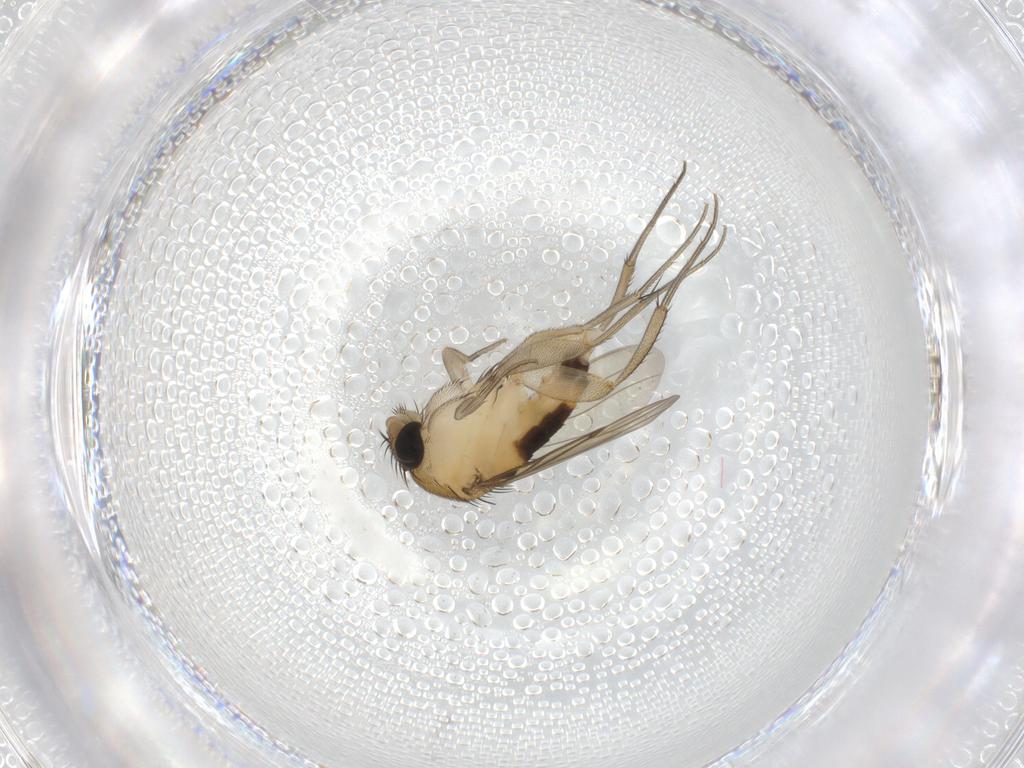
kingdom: Animalia
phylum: Arthropoda
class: Insecta
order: Diptera
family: Phoridae
